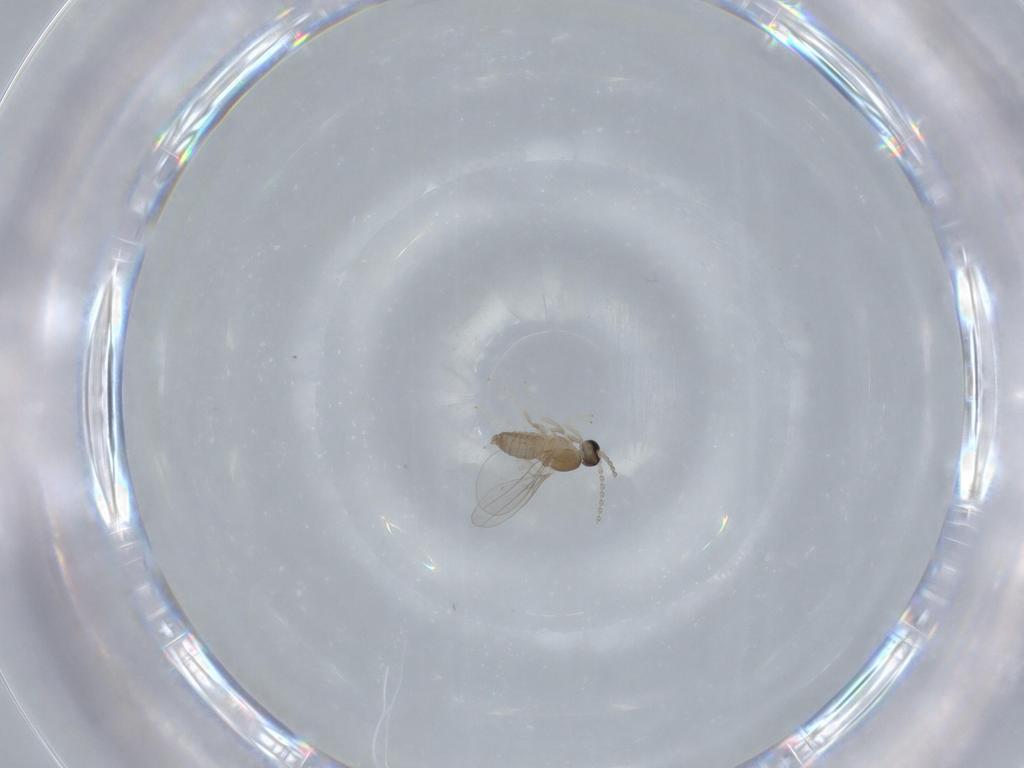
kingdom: Animalia
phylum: Arthropoda
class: Insecta
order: Diptera
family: Cecidomyiidae
